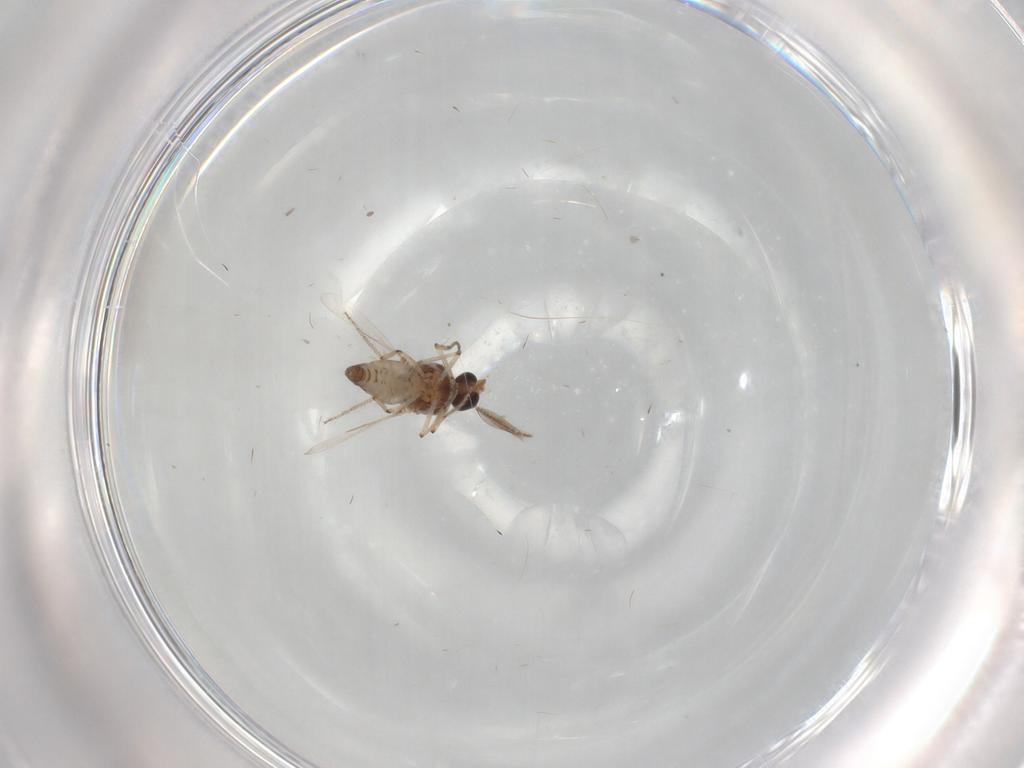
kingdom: Animalia
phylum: Arthropoda
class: Insecta
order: Diptera
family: Ceratopogonidae
